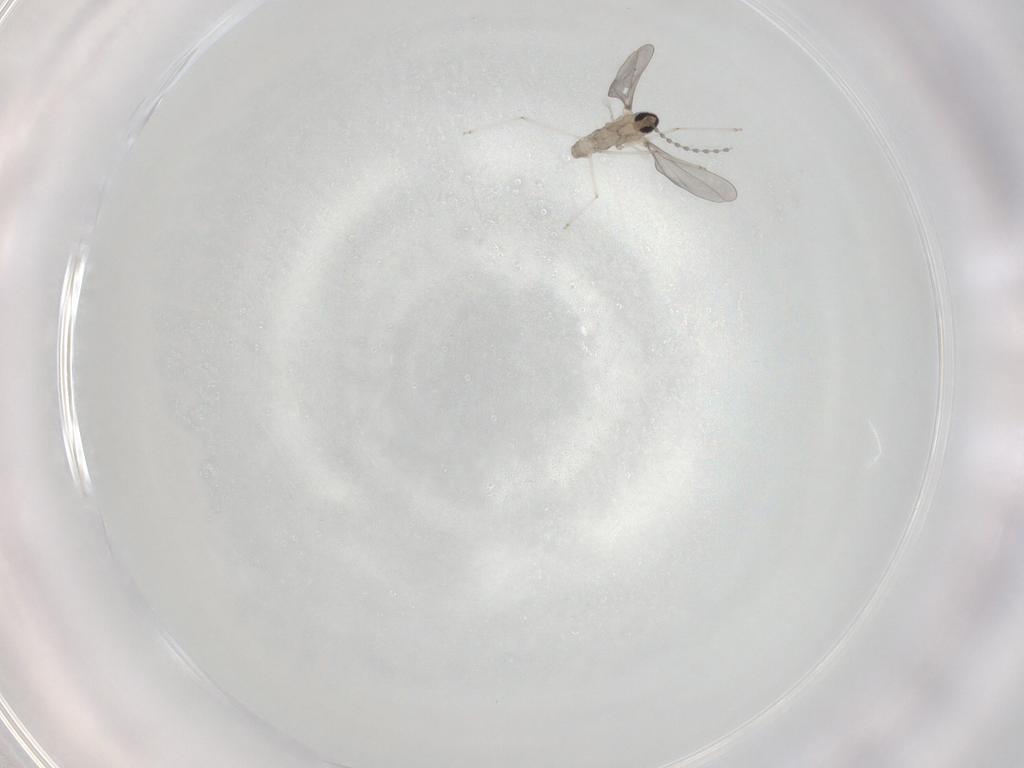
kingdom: Animalia
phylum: Arthropoda
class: Insecta
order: Diptera
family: Cecidomyiidae
